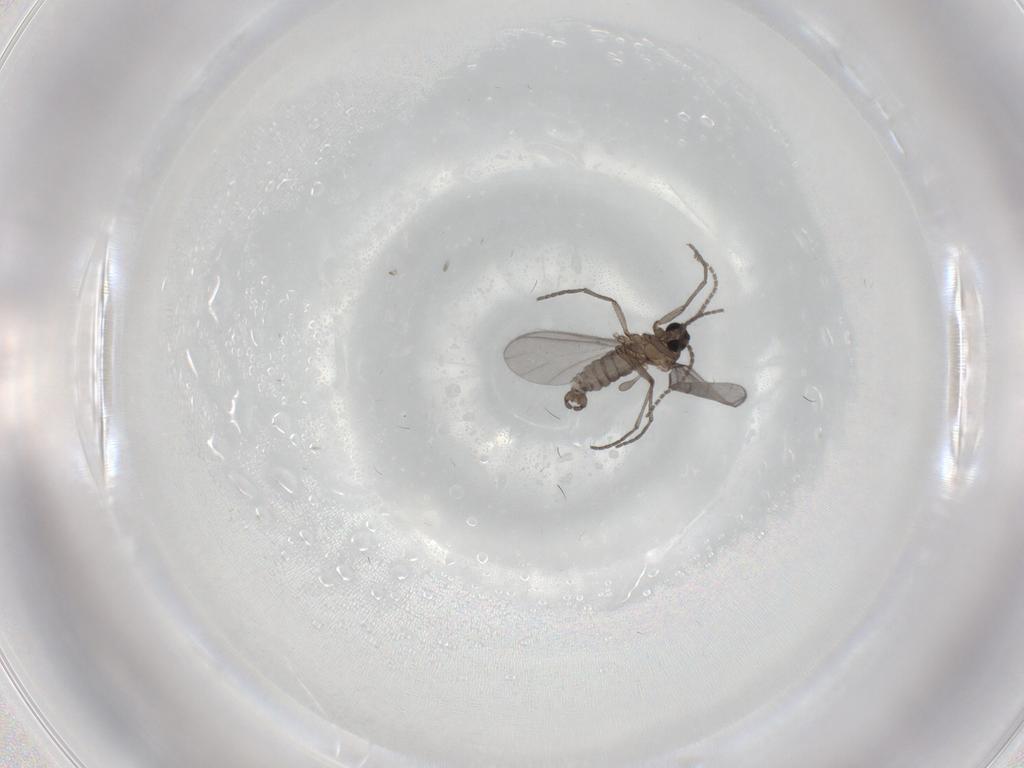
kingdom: Animalia
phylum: Arthropoda
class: Insecta
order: Diptera
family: Sciaridae
